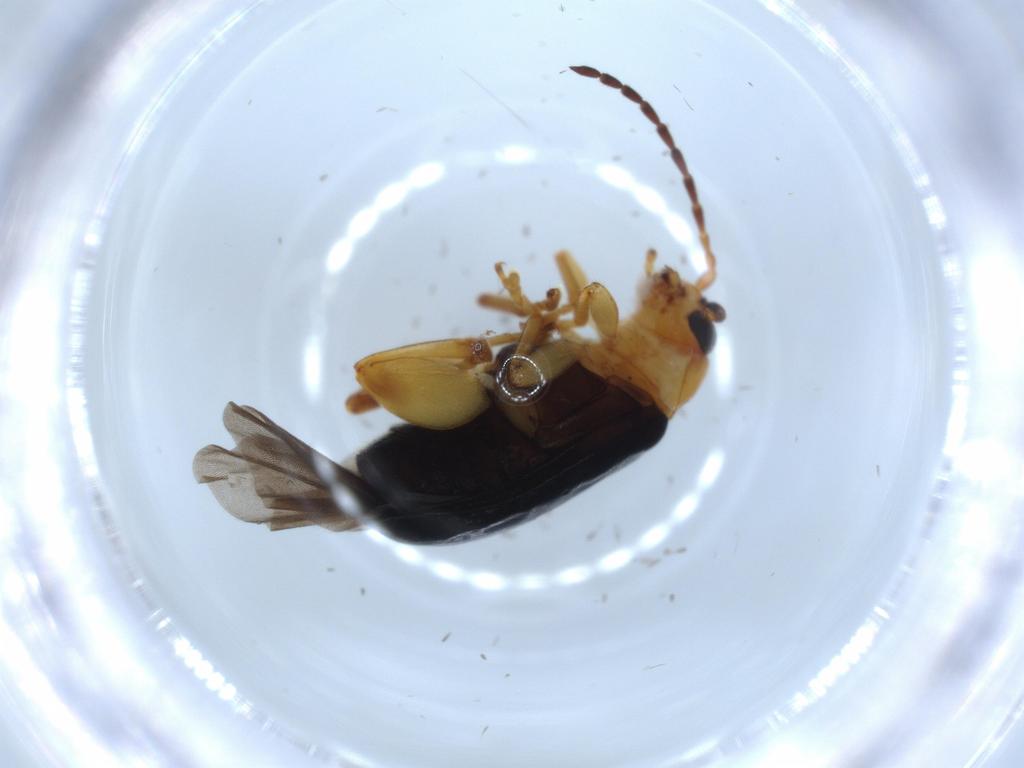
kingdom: Animalia
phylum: Arthropoda
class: Insecta
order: Coleoptera
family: Chrysomelidae
